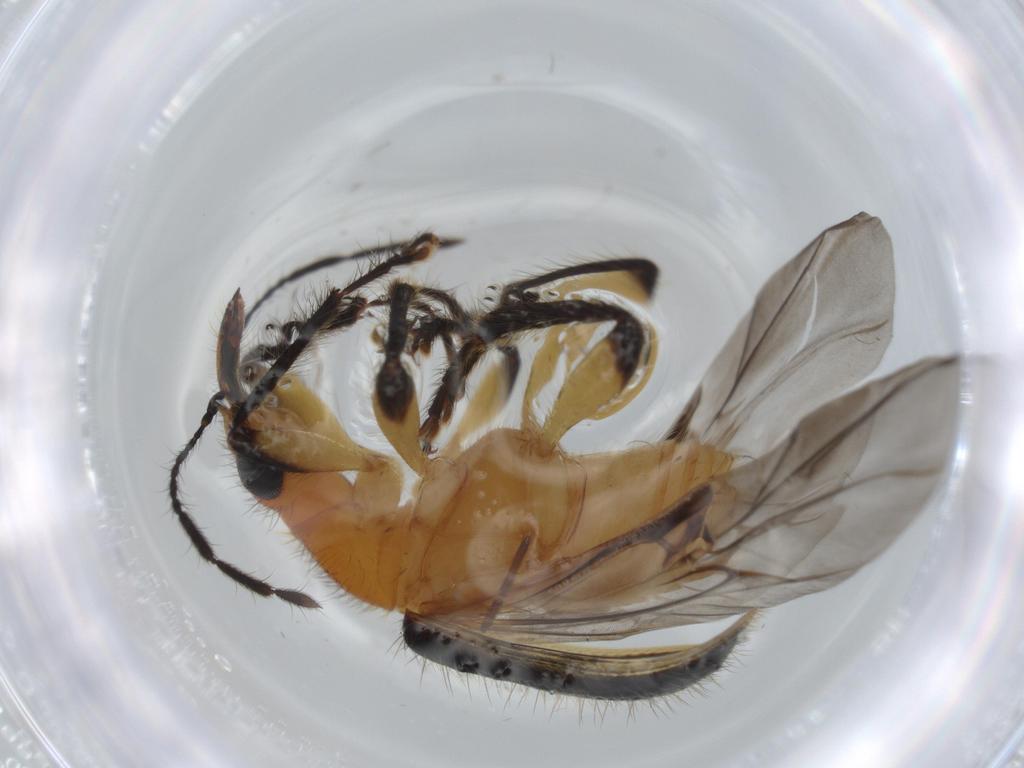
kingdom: Animalia
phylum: Arthropoda
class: Insecta
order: Coleoptera
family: Attelabidae
